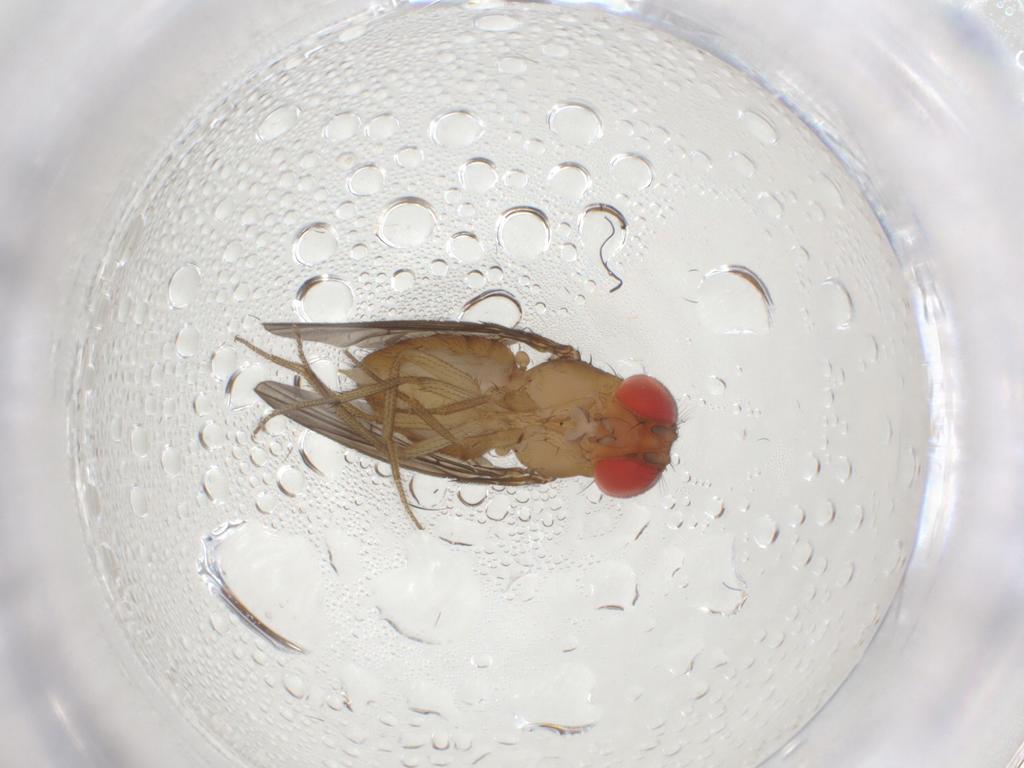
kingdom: Animalia
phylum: Arthropoda
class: Insecta
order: Diptera
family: Drosophilidae
